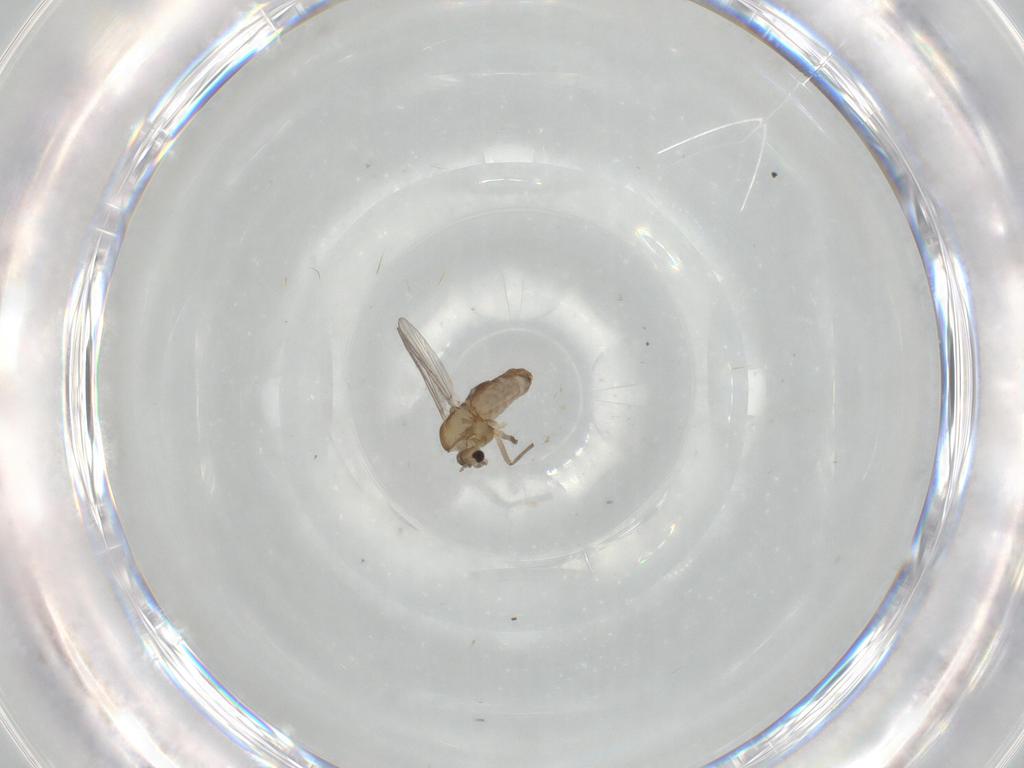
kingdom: Animalia
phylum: Arthropoda
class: Insecta
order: Diptera
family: Chironomidae
